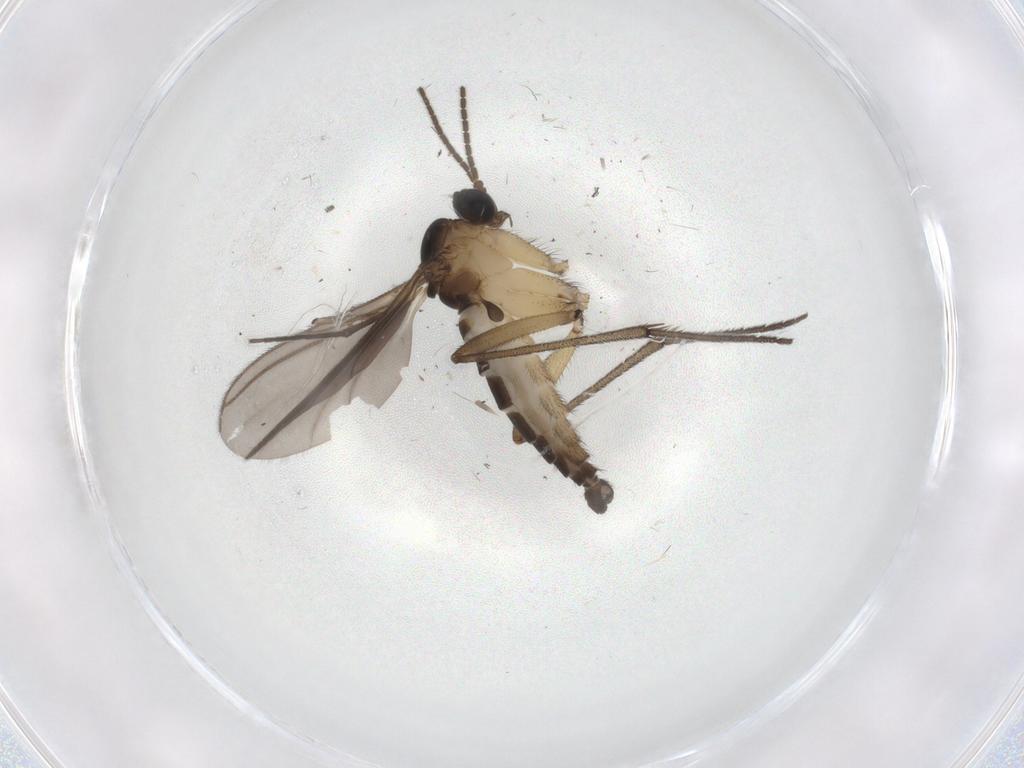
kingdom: Animalia
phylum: Arthropoda
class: Insecta
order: Diptera
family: Sciaridae
